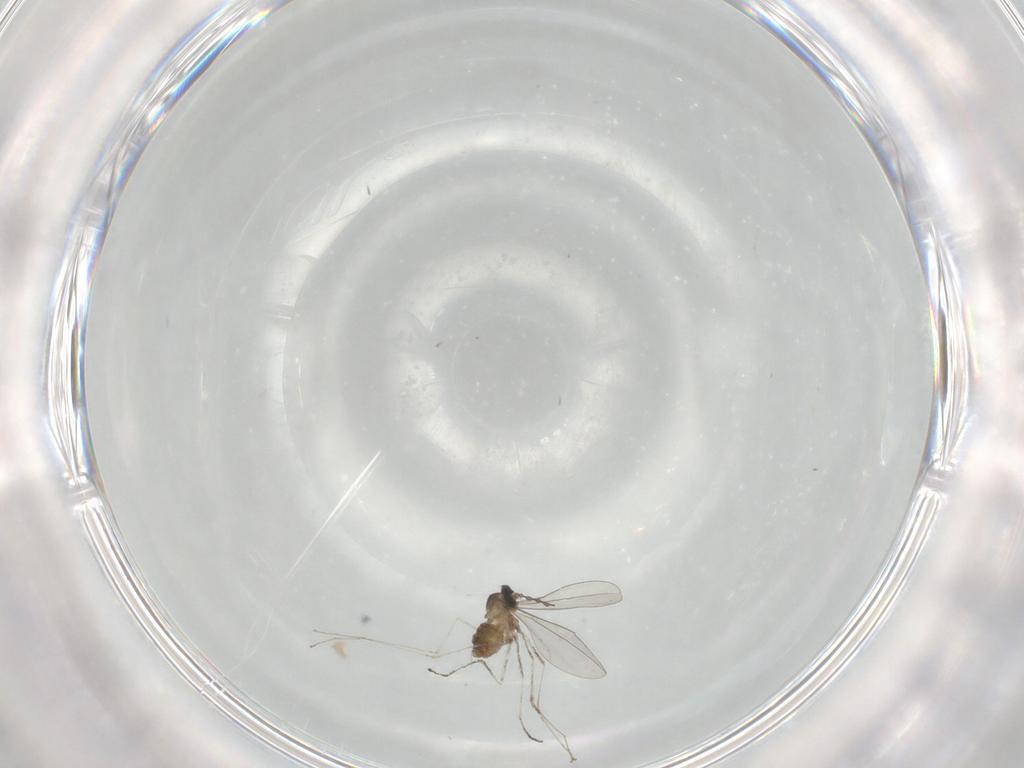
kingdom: Animalia
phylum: Arthropoda
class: Insecta
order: Diptera
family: Cecidomyiidae
